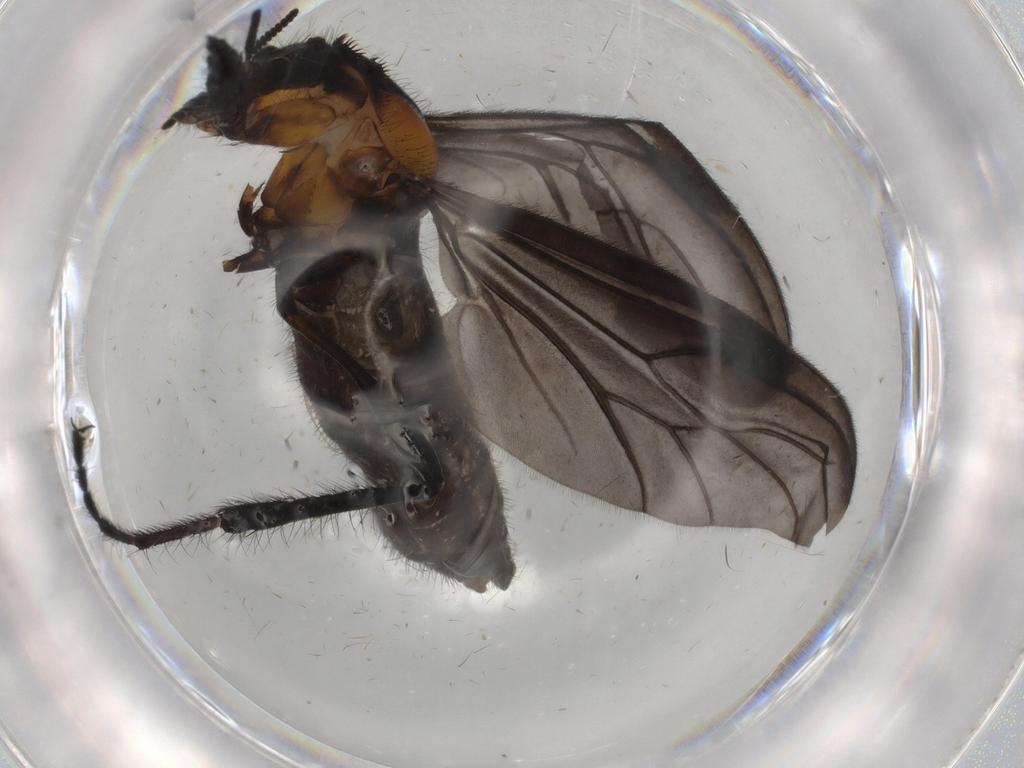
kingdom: Animalia
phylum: Arthropoda
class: Insecta
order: Diptera
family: Bibionidae
